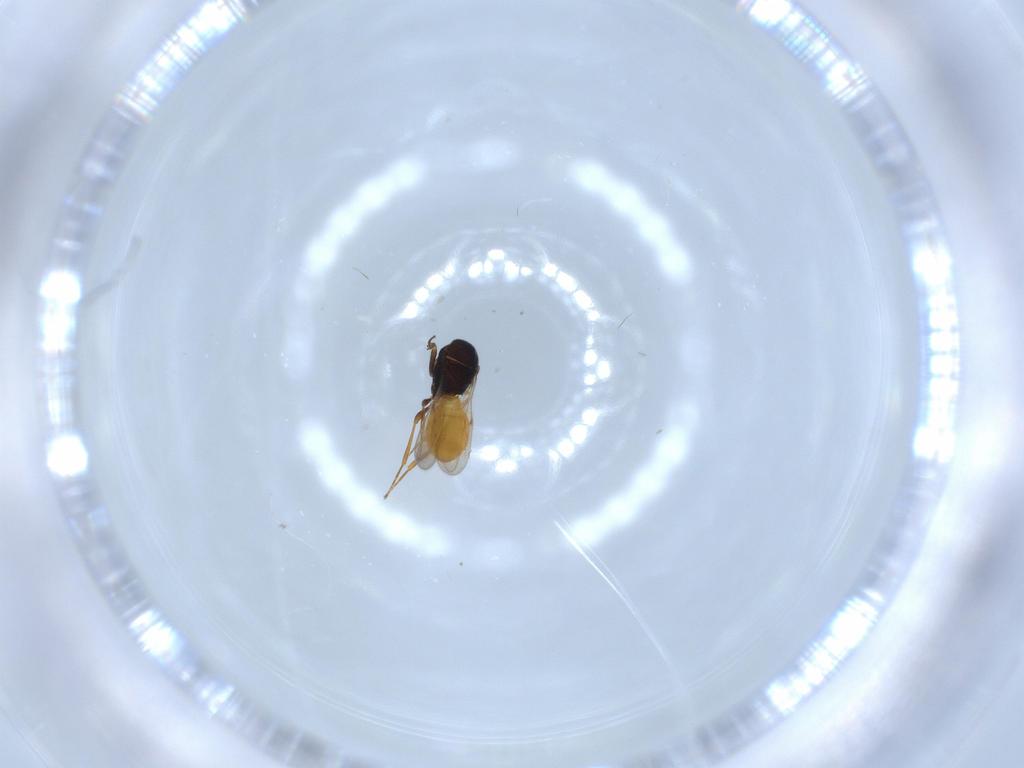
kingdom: Animalia
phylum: Arthropoda
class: Insecta
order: Hymenoptera
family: Scelionidae
